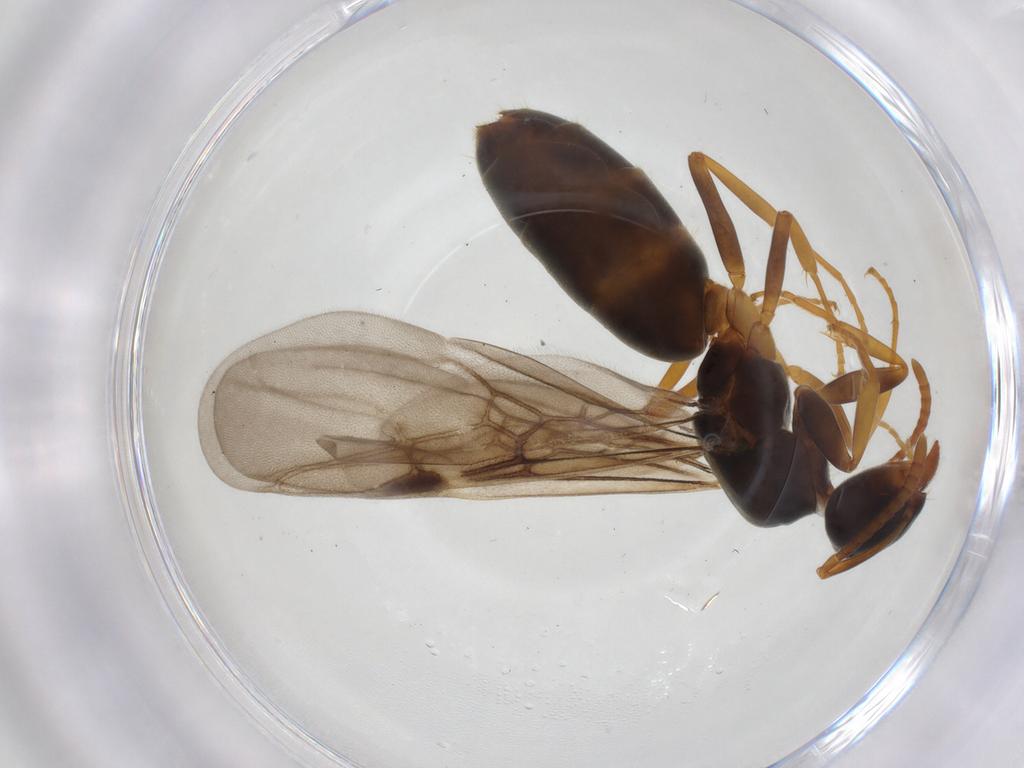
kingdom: Animalia
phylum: Arthropoda
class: Insecta
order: Hymenoptera
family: Formicidae
